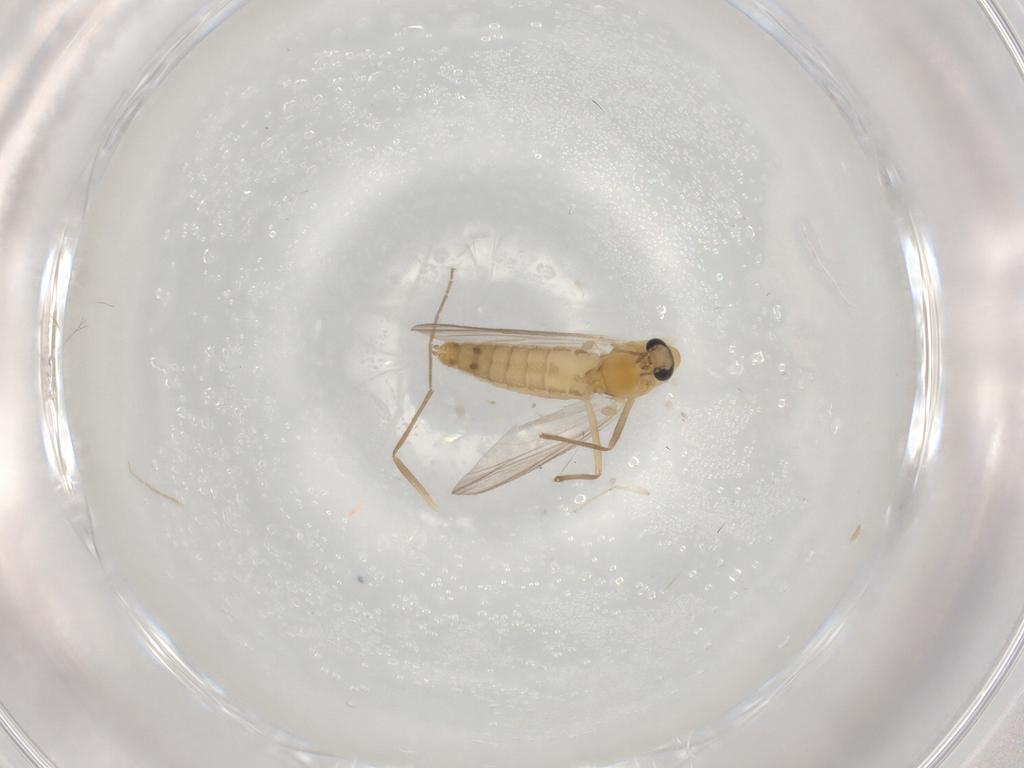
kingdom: Animalia
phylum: Arthropoda
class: Insecta
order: Diptera
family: Chironomidae
